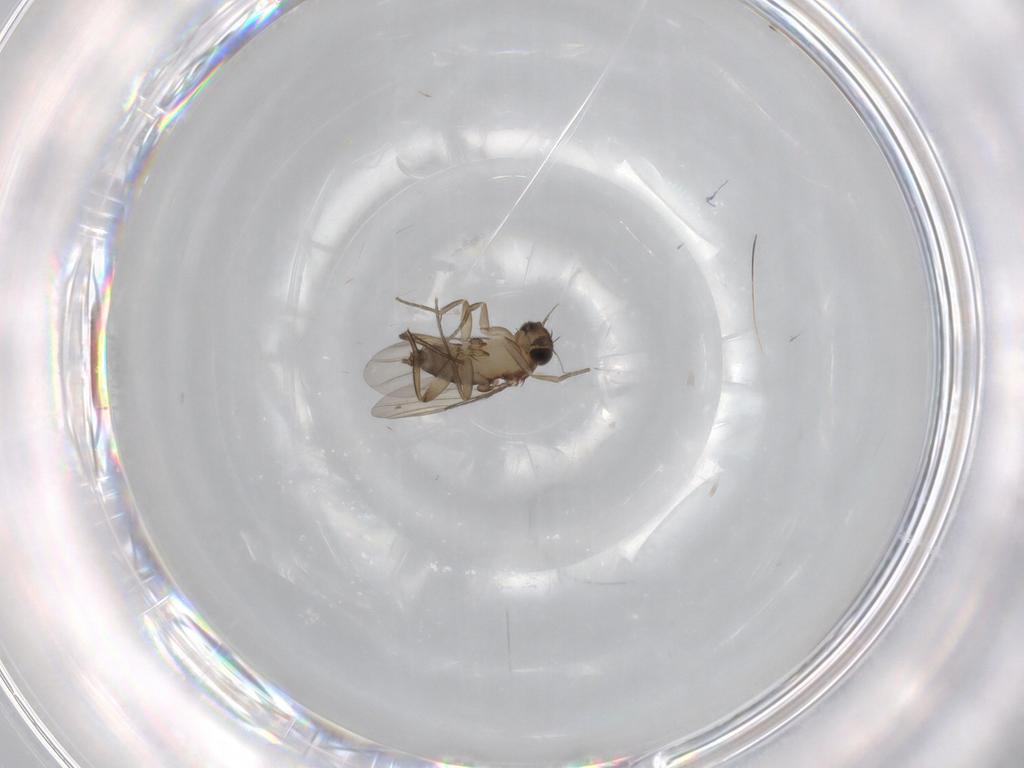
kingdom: Animalia
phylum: Arthropoda
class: Insecta
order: Diptera
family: Phoridae
